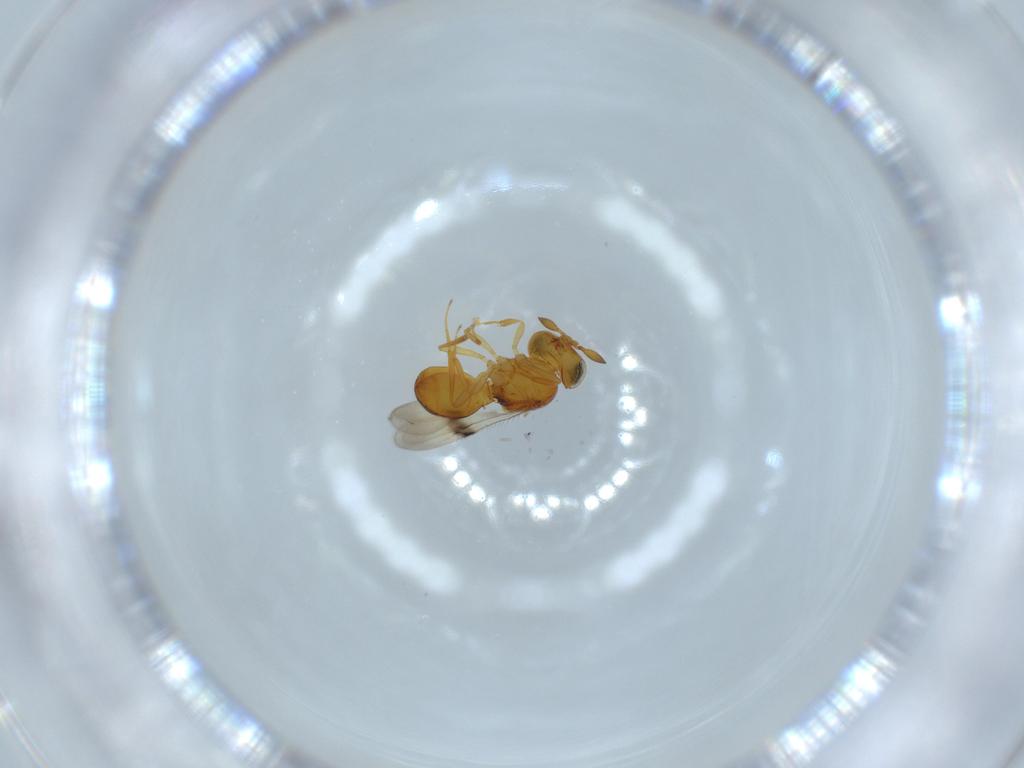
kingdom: Animalia
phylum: Arthropoda
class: Insecta
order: Hymenoptera
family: Scelionidae
